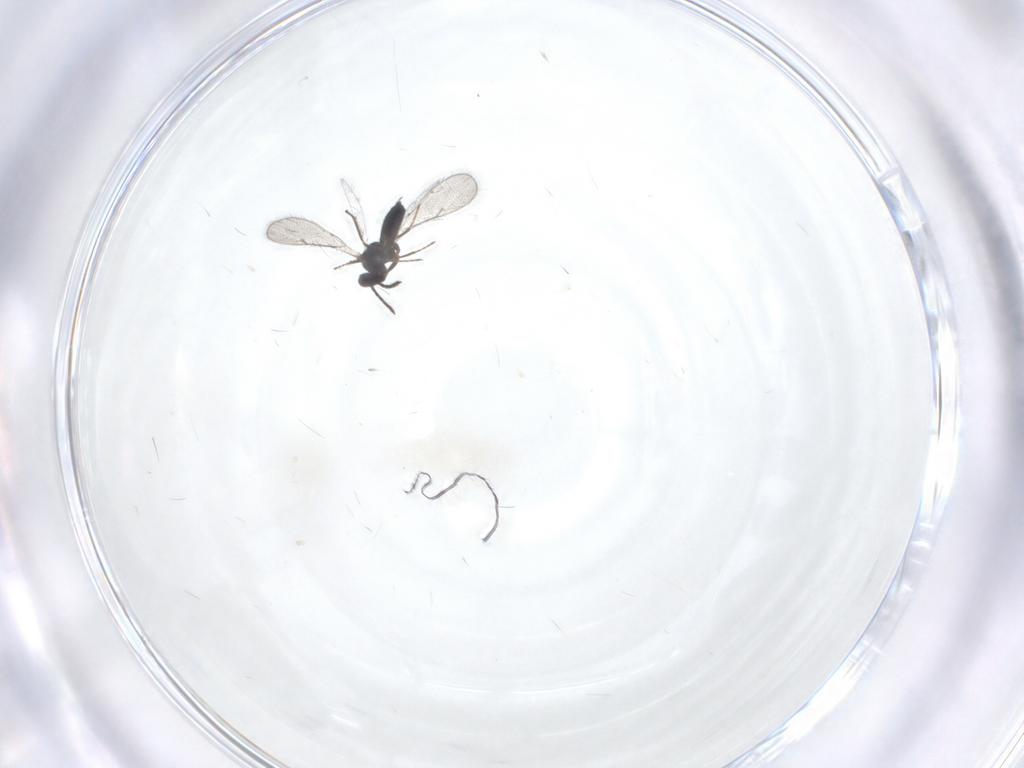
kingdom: Animalia
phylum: Arthropoda
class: Insecta
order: Hymenoptera
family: Eulophidae
